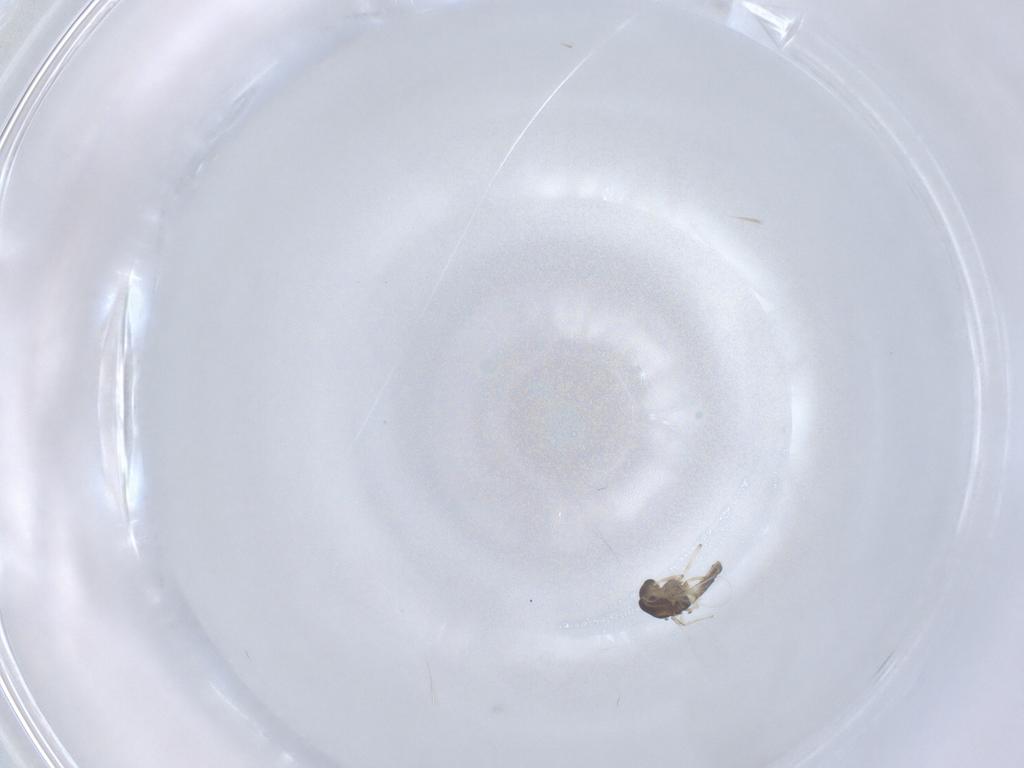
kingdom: Animalia
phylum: Arthropoda
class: Insecta
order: Diptera
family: Chironomidae
